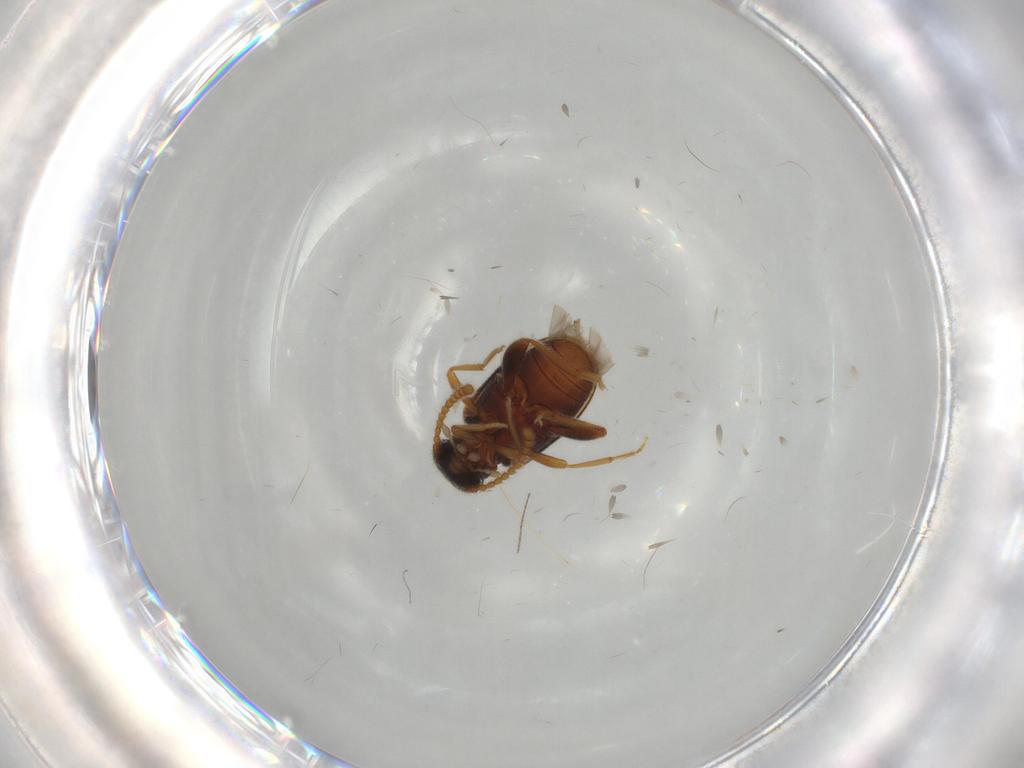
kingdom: Animalia
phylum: Arthropoda
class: Insecta
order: Coleoptera
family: Aderidae
